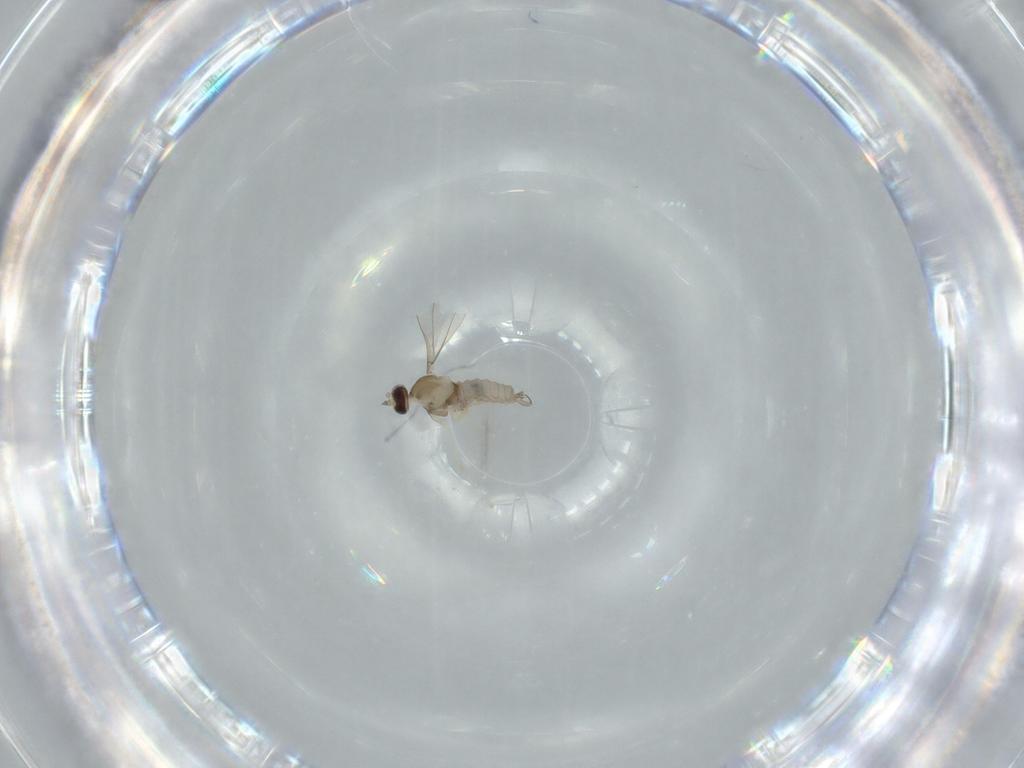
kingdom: Animalia
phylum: Arthropoda
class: Insecta
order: Diptera
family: Cecidomyiidae
